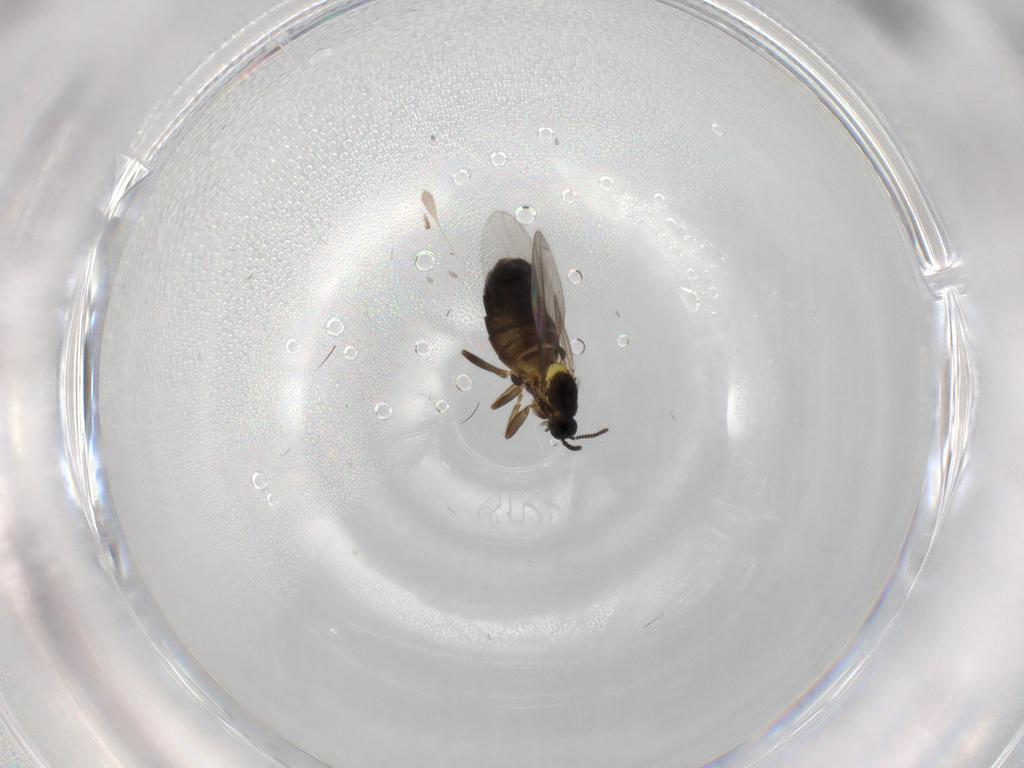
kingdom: Animalia
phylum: Arthropoda
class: Insecta
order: Diptera
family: Scatopsidae
